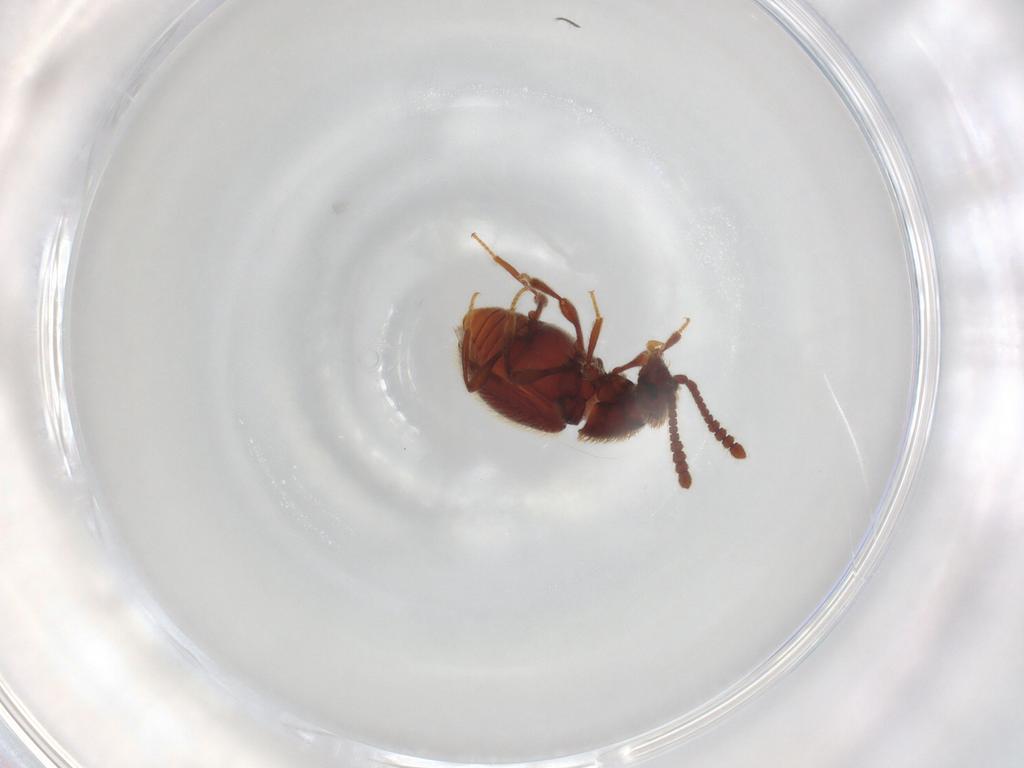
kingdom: Animalia
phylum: Arthropoda
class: Insecta
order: Coleoptera
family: Staphylinidae
